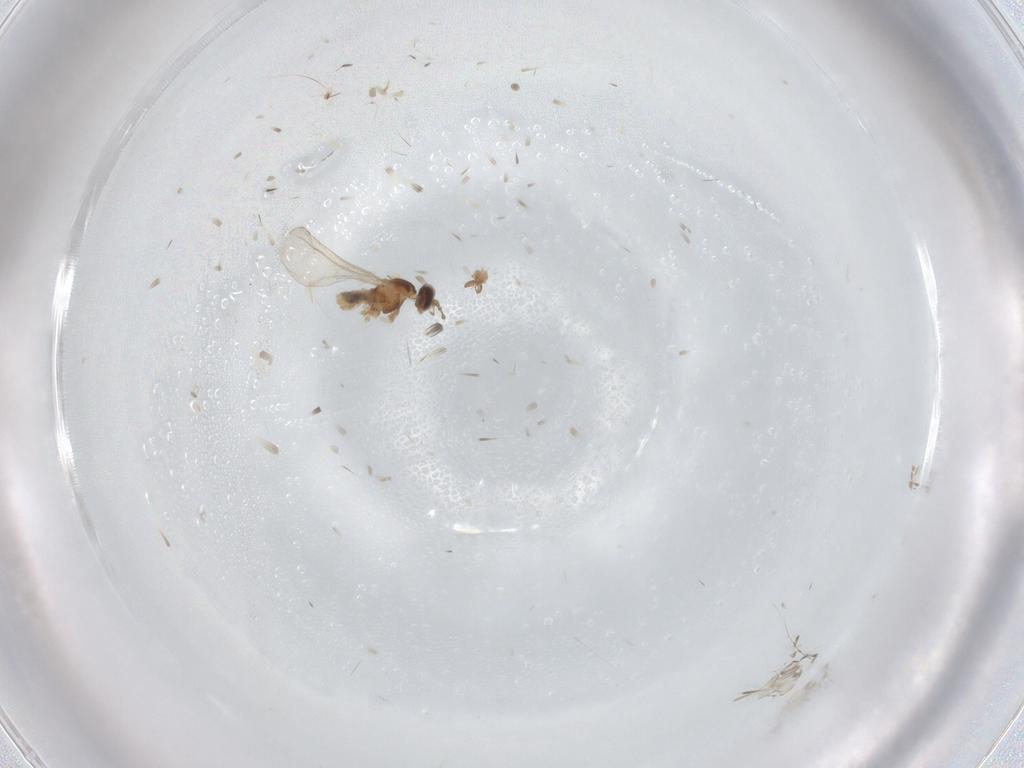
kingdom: Animalia
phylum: Arthropoda
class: Insecta
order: Diptera
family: Cecidomyiidae
